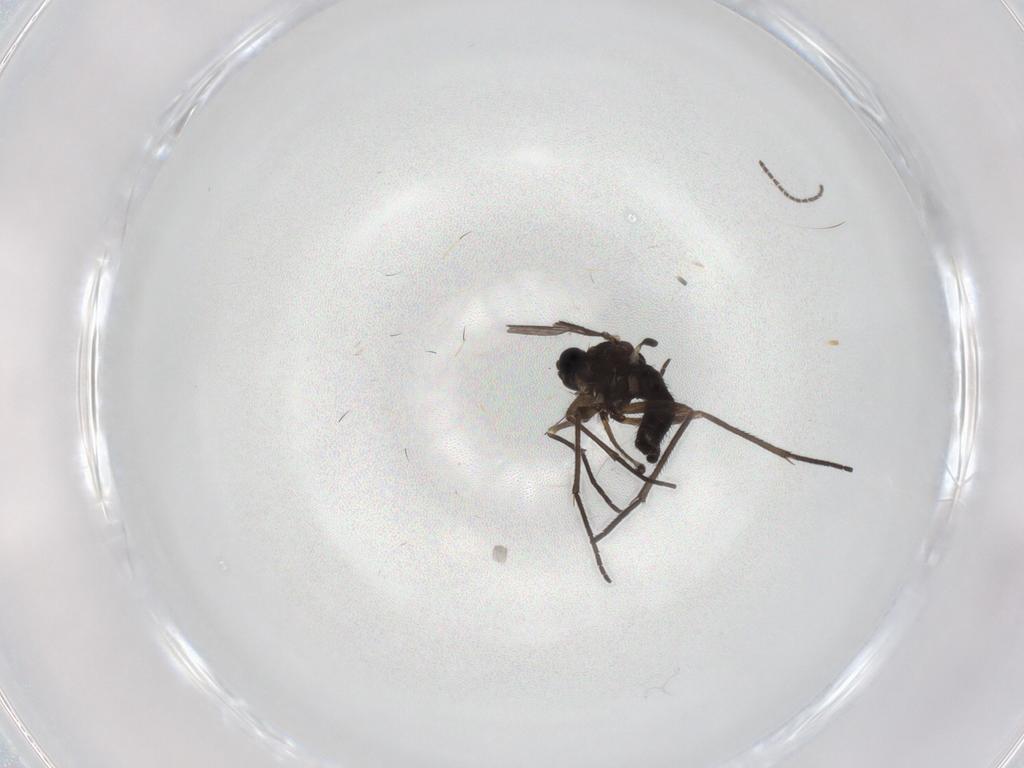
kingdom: Animalia
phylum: Arthropoda
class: Insecta
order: Diptera
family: Sciaridae
